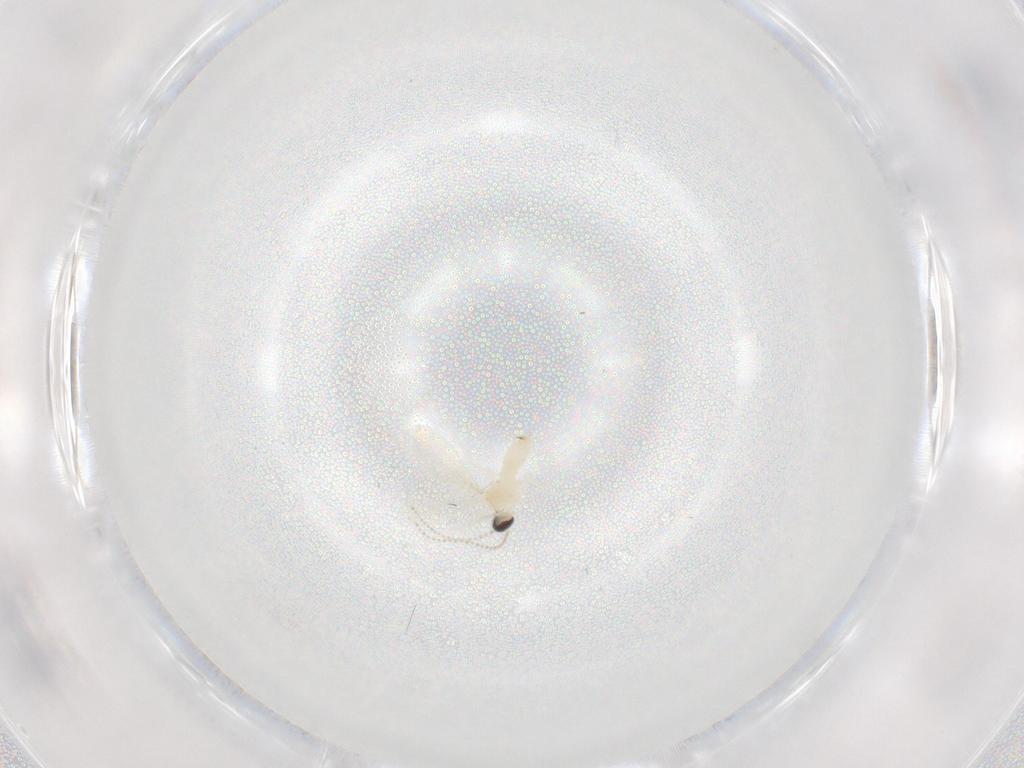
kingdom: Animalia
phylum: Arthropoda
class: Insecta
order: Diptera
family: Cecidomyiidae
